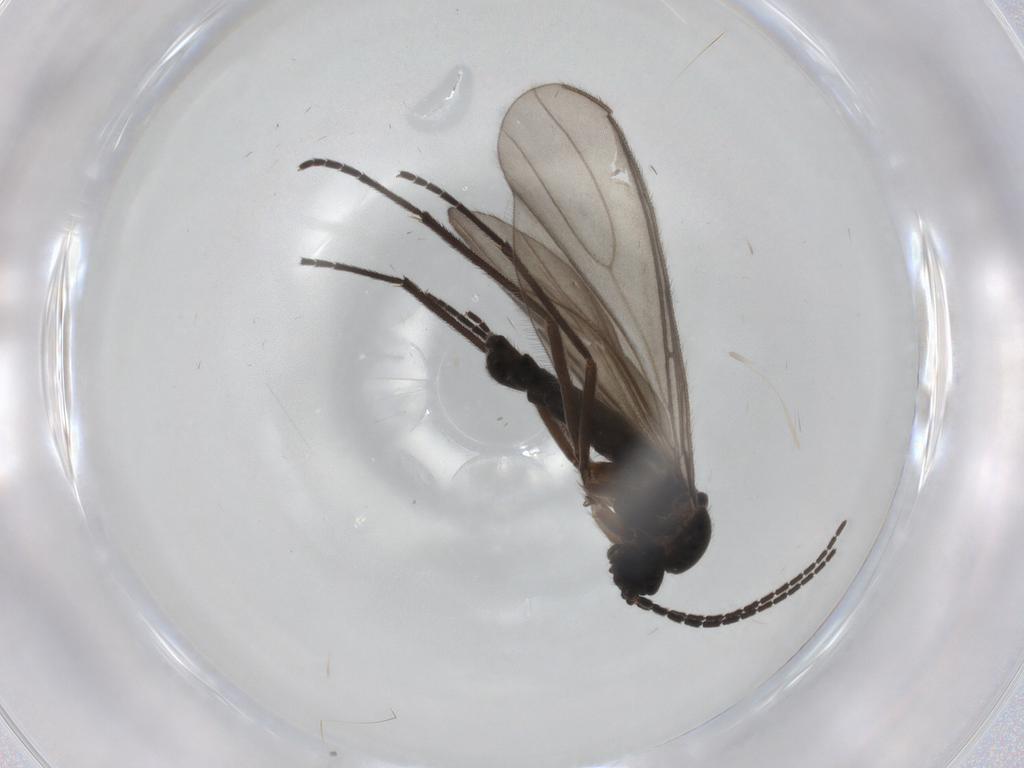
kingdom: Animalia
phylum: Arthropoda
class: Insecta
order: Diptera
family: Sciaridae
